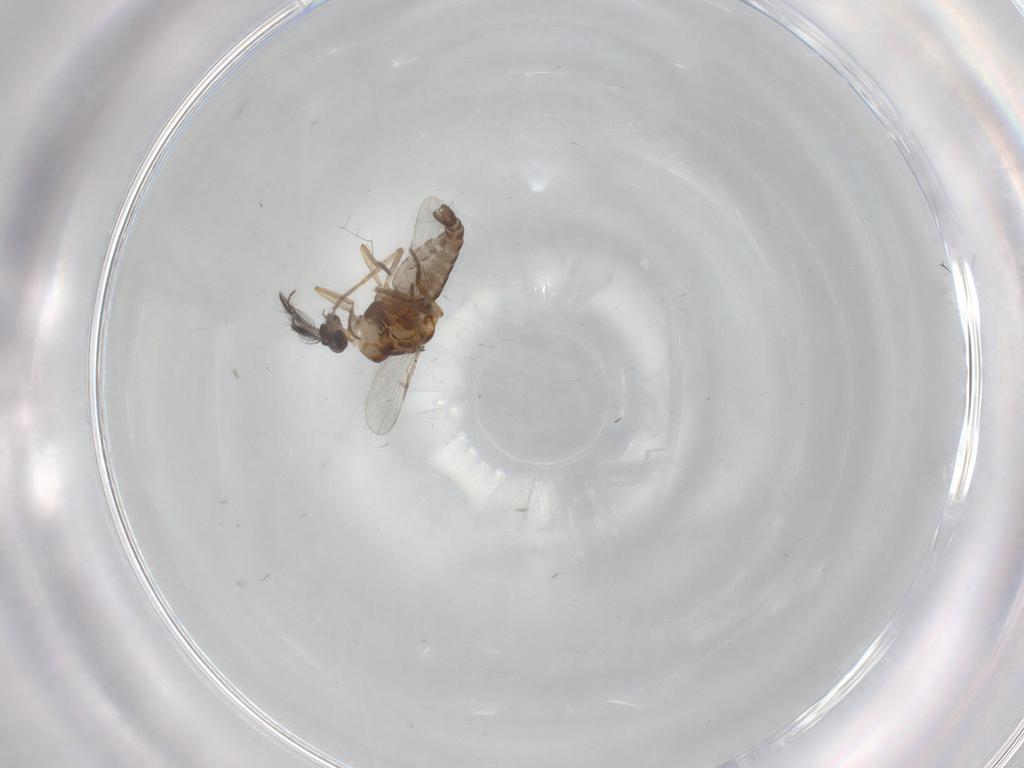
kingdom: Animalia
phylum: Arthropoda
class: Insecta
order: Diptera
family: Ceratopogonidae
